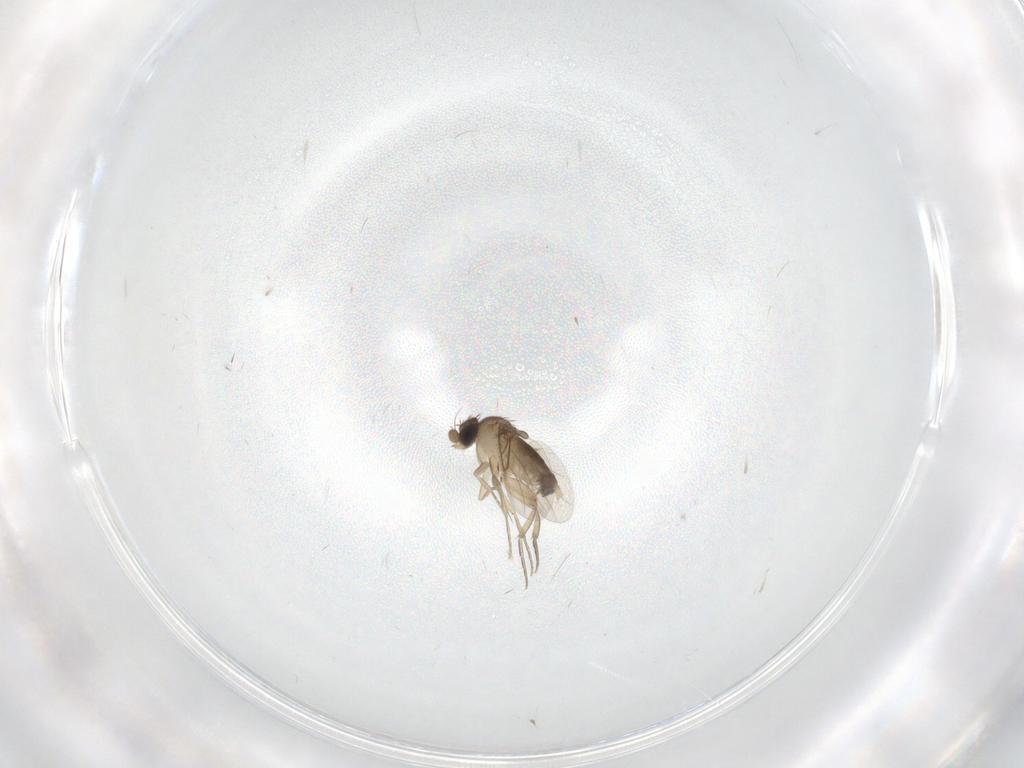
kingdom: Animalia
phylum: Arthropoda
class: Insecta
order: Diptera
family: Phoridae
